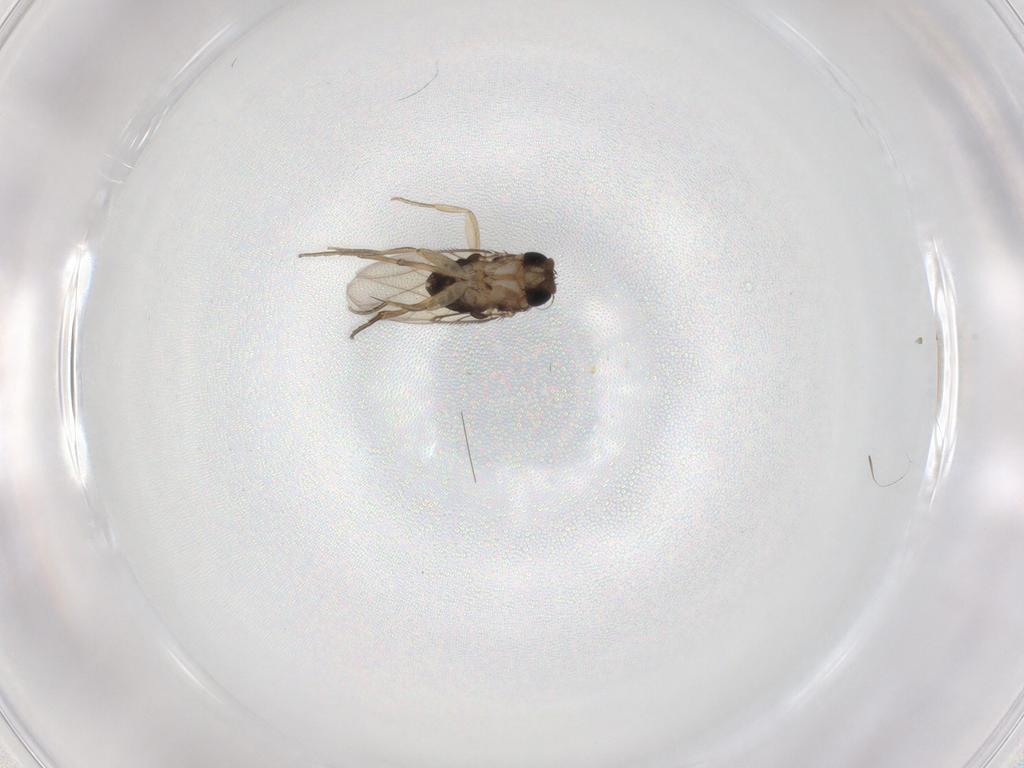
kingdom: Animalia
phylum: Arthropoda
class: Insecta
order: Diptera
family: Phoridae
